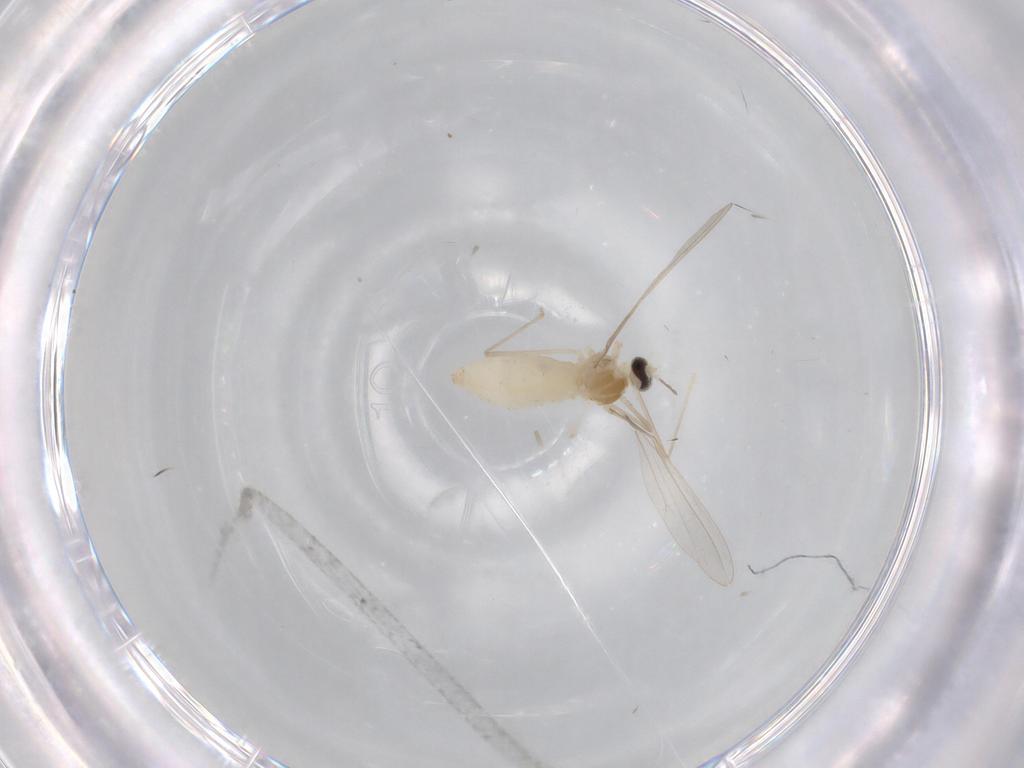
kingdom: Animalia
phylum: Arthropoda
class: Insecta
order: Diptera
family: Cecidomyiidae
